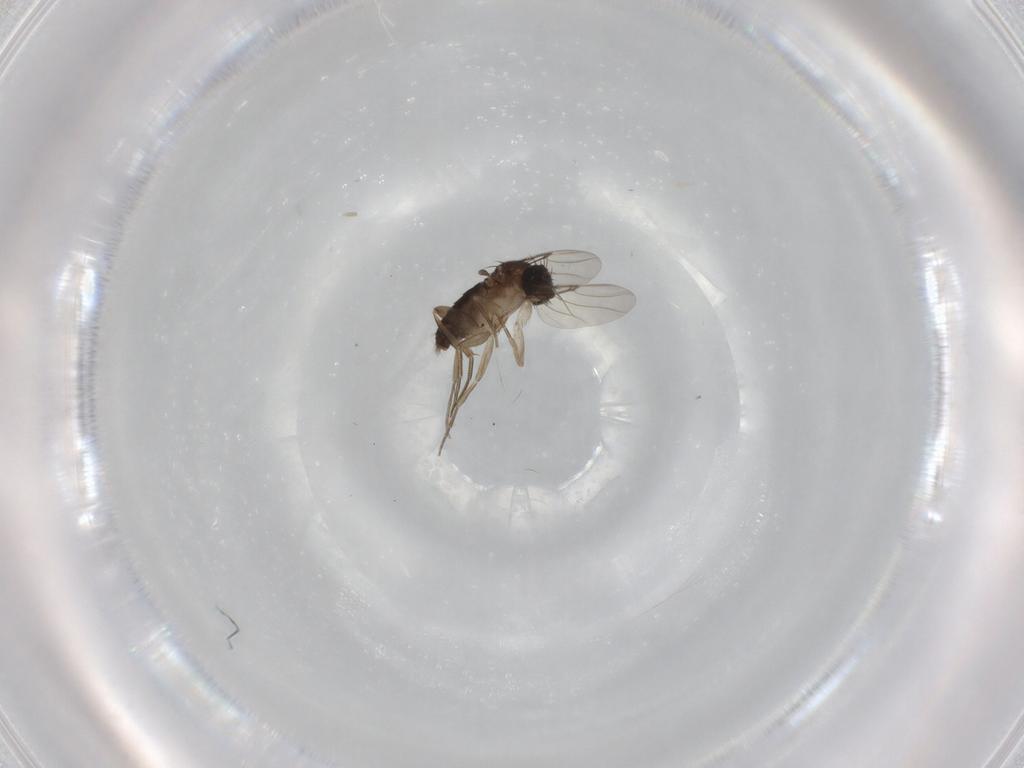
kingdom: Animalia
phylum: Arthropoda
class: Insecta
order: Diptera
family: Phoridae
